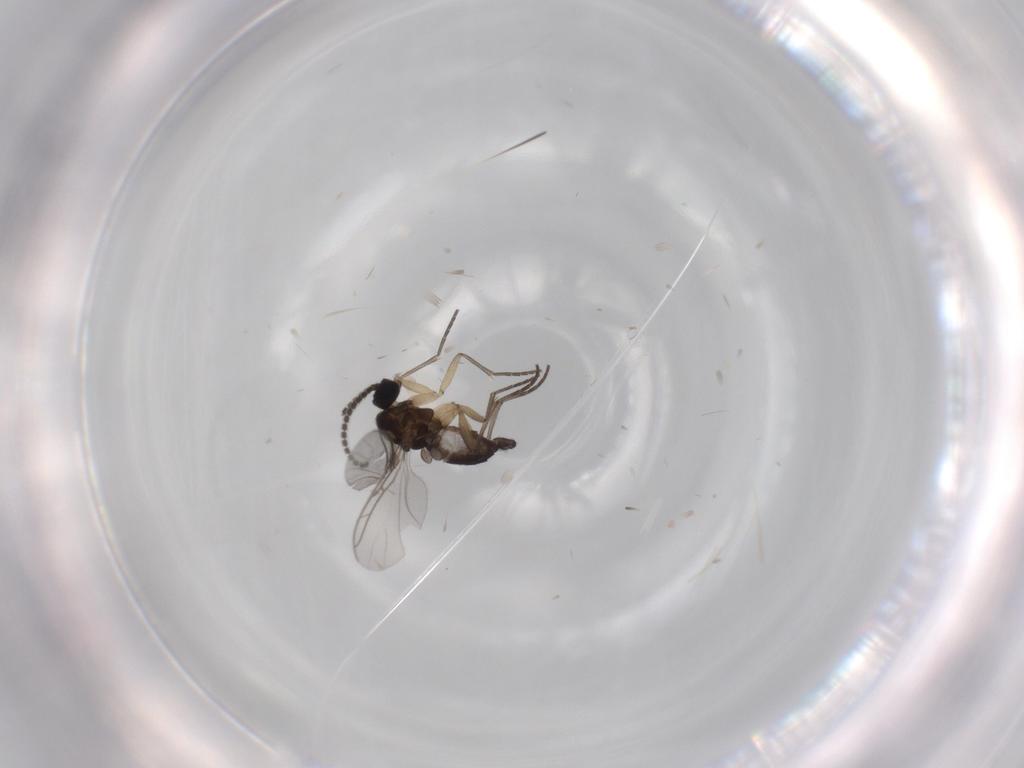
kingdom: Animalia
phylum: Arthropoda
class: Insecta
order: Diptera
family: Sciaridae
